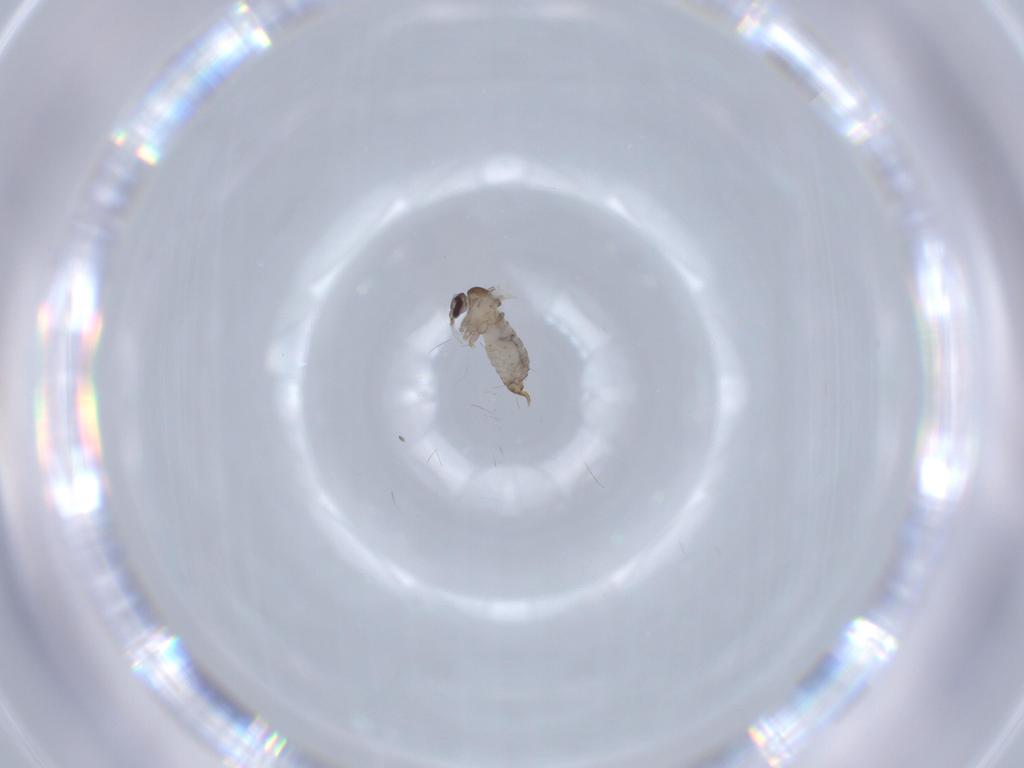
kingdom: Animalia
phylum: Arthropoda
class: Insecta
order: Diptera
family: Psychodidae
